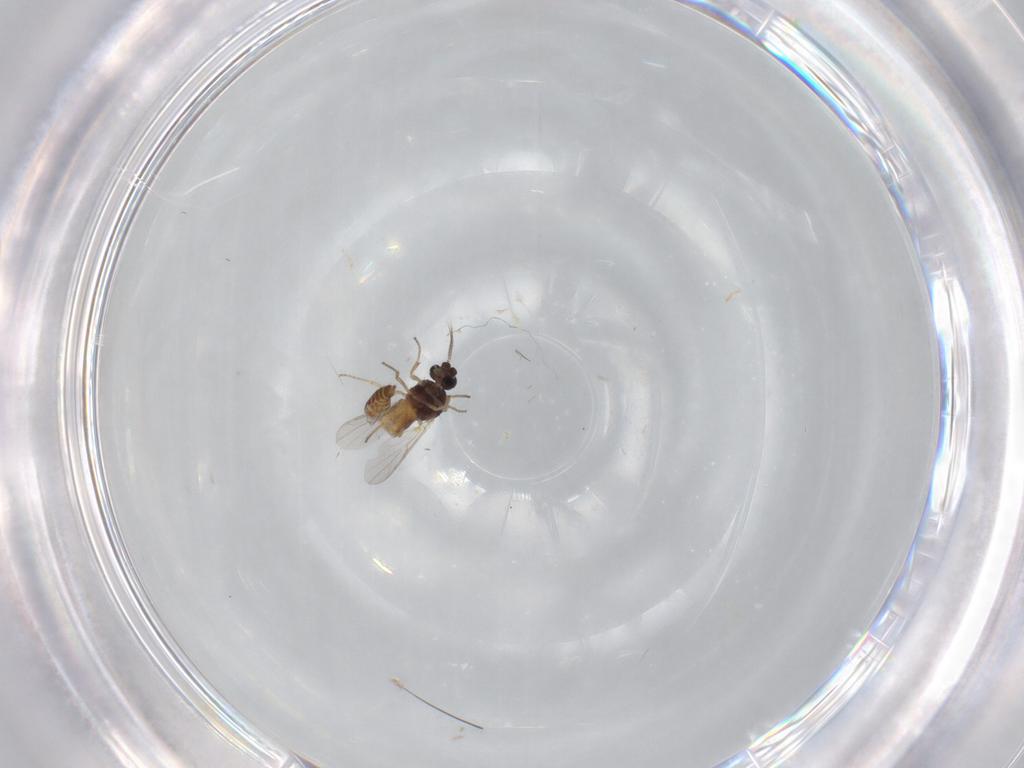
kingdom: Animalia
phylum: Arthropoda
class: Insecta
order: Diptera
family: Ceratopogonidae
